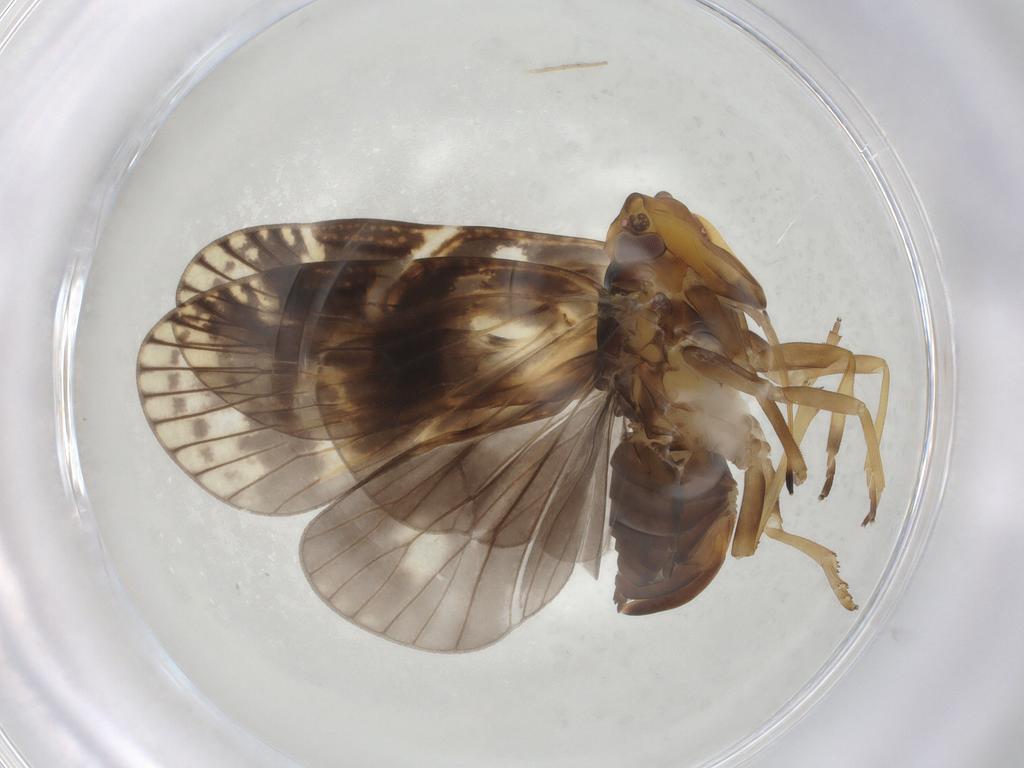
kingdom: Animalia
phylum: Arthropoda
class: Insecta
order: Hemiptera
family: Cixiidae
